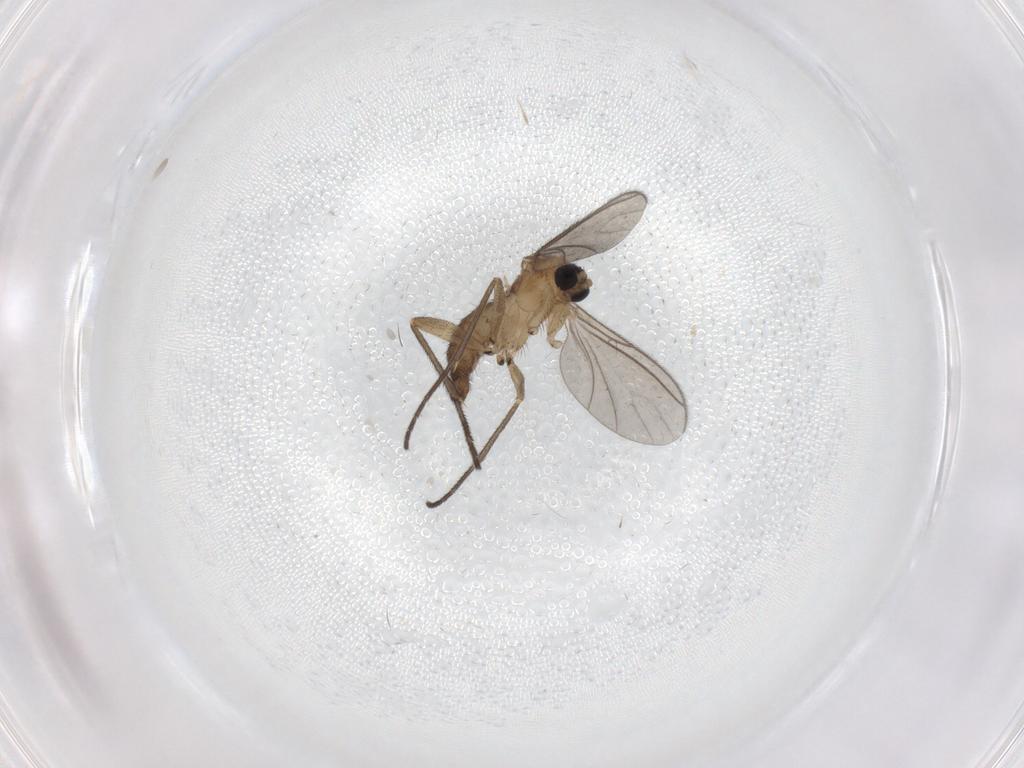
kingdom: Animalia
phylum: Arthropoda
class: Insecta
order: Diptera
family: Sciaridae
